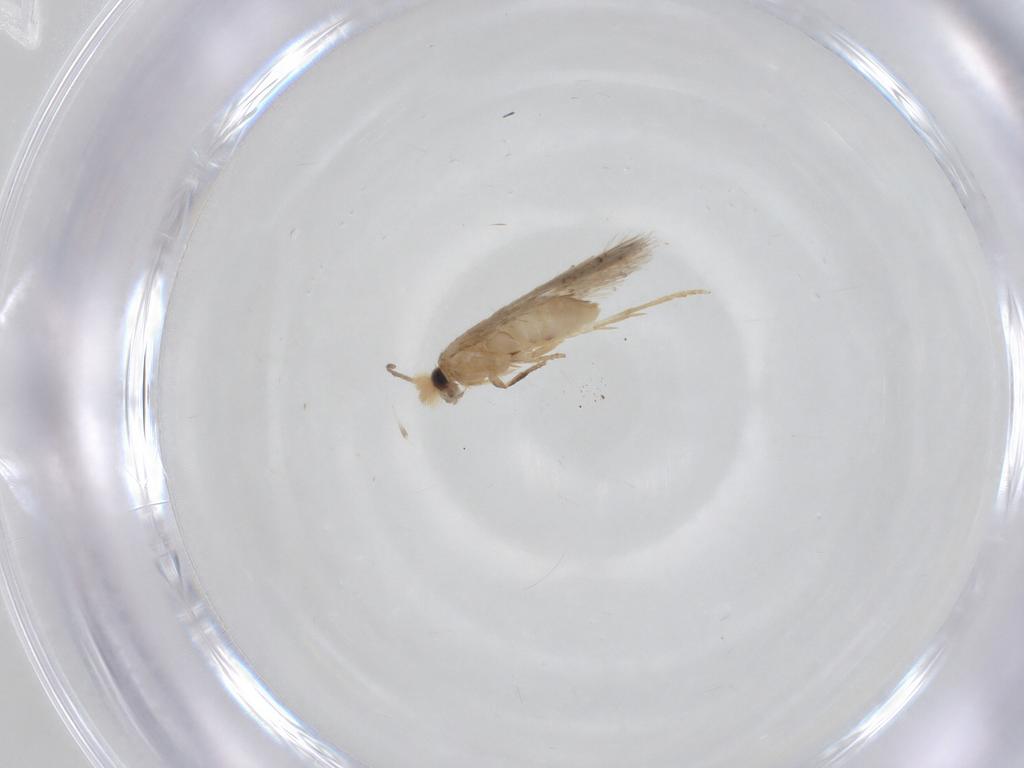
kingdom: Animalia
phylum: Arthropoda
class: Insecta
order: Lepidoptera
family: Nepticulidae
